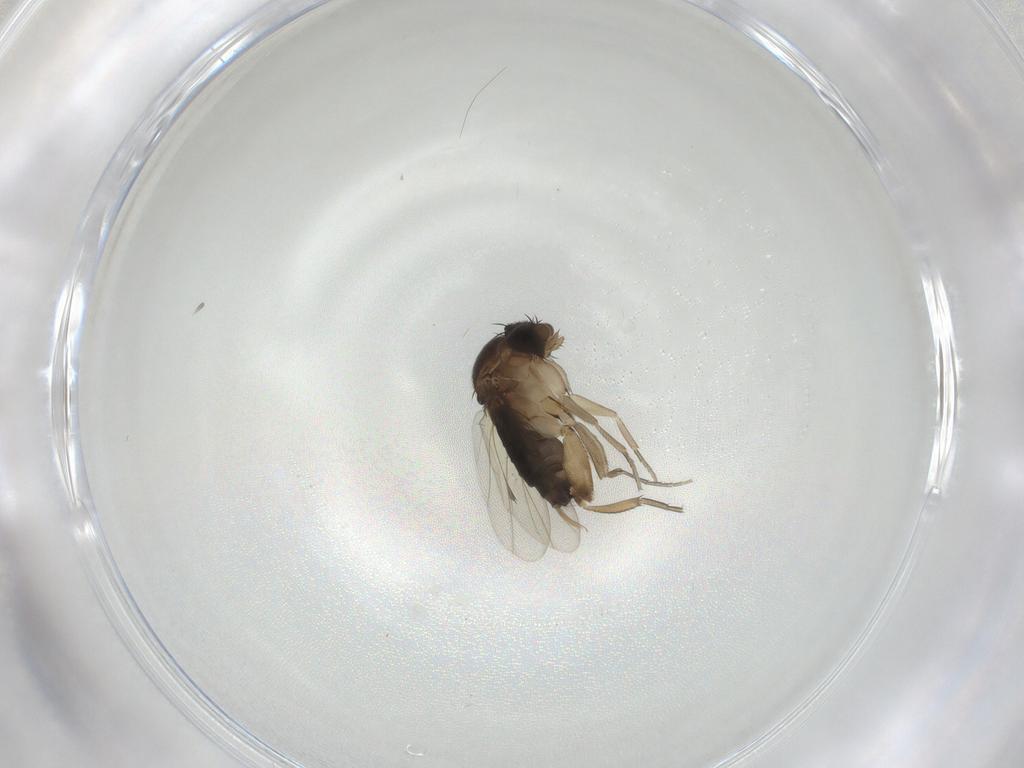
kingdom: Animalia
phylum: Arthropoda
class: Insecta
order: Diptera
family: Phoridae
